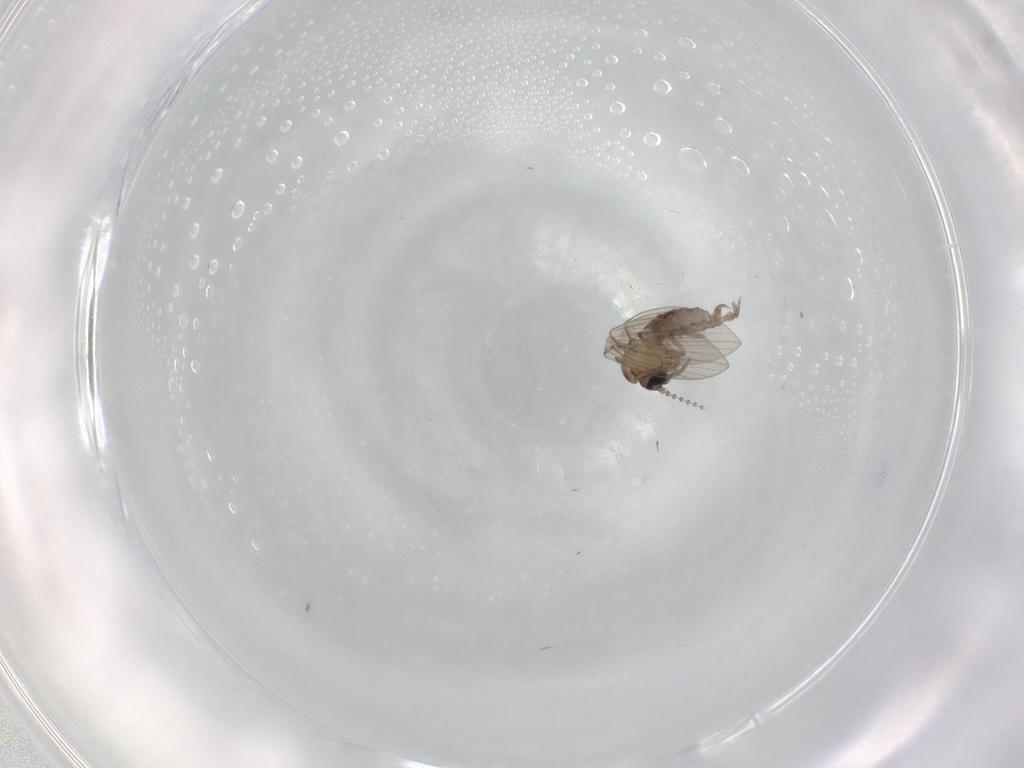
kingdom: Animalia
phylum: Arthropoda
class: Insecta
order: Diptera
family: Psychodidae
